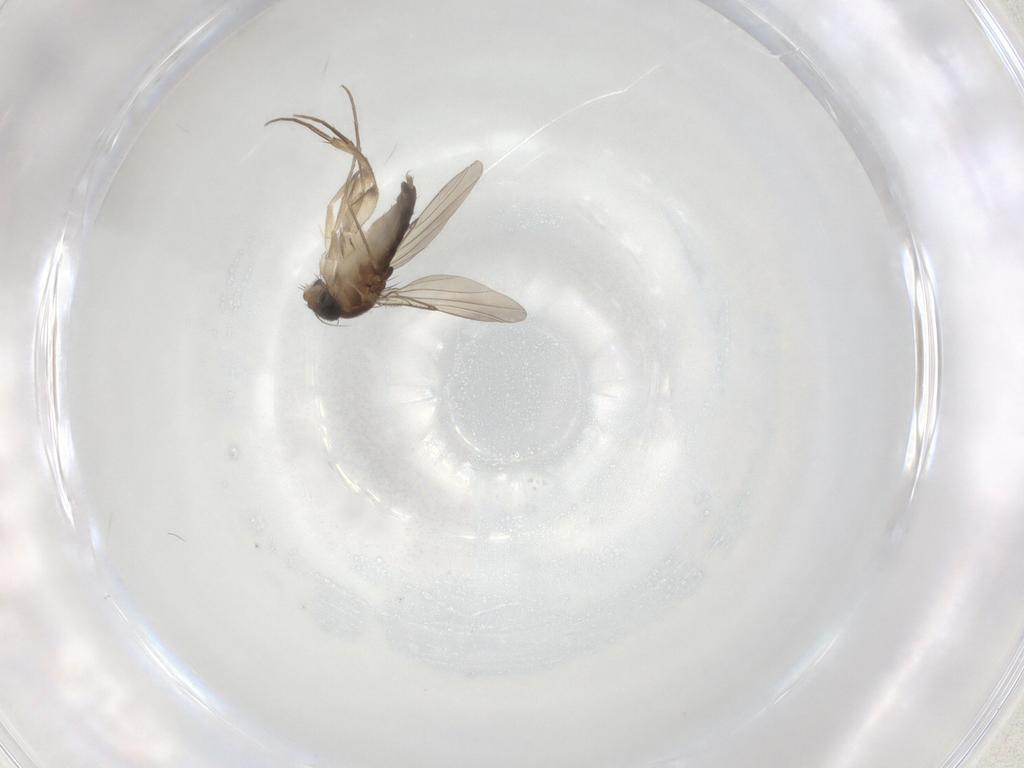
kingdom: Animalia
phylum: Arthropoda
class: Insecta
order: Diptera
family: Phoridae
